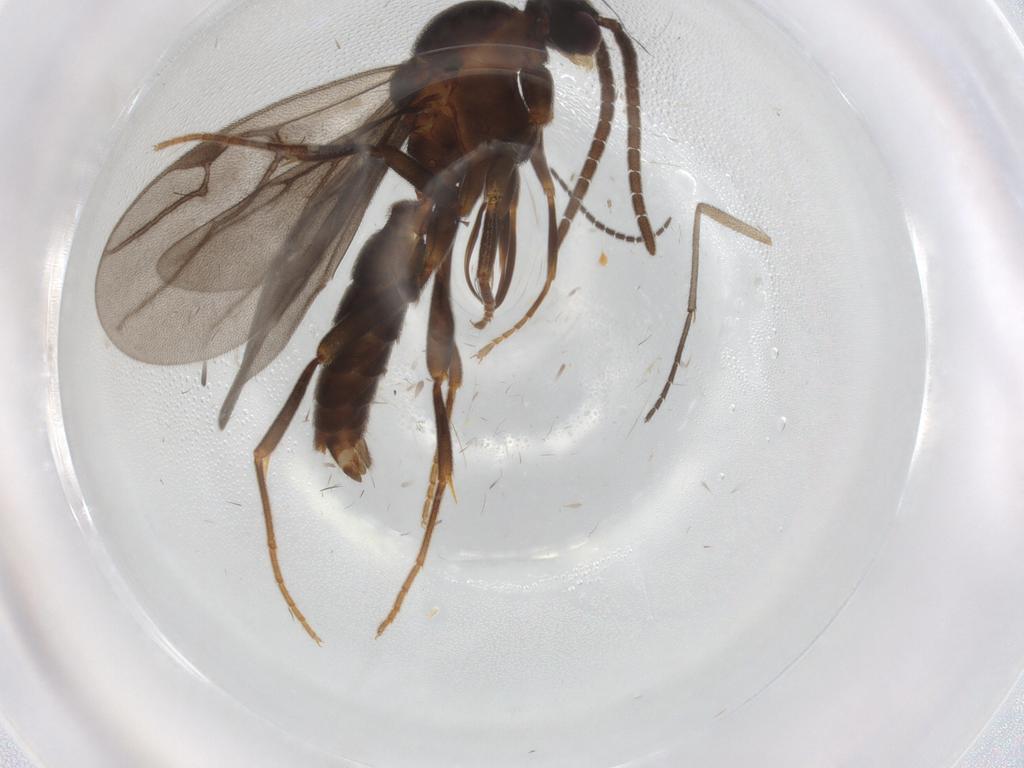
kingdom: Animalia
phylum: Arthropoda
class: Insecta
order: Hymenoptera
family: Formicidae
